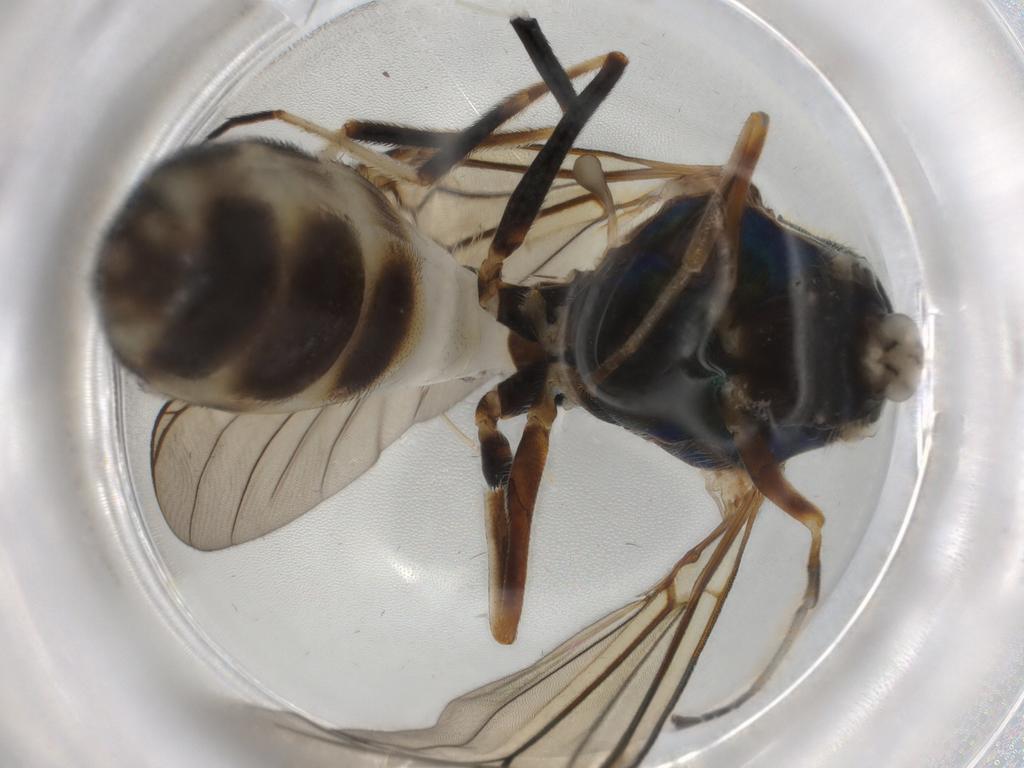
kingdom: Animalia
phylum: Arthropoda
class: Insecta
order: Diptera
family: Stratiomyidae
